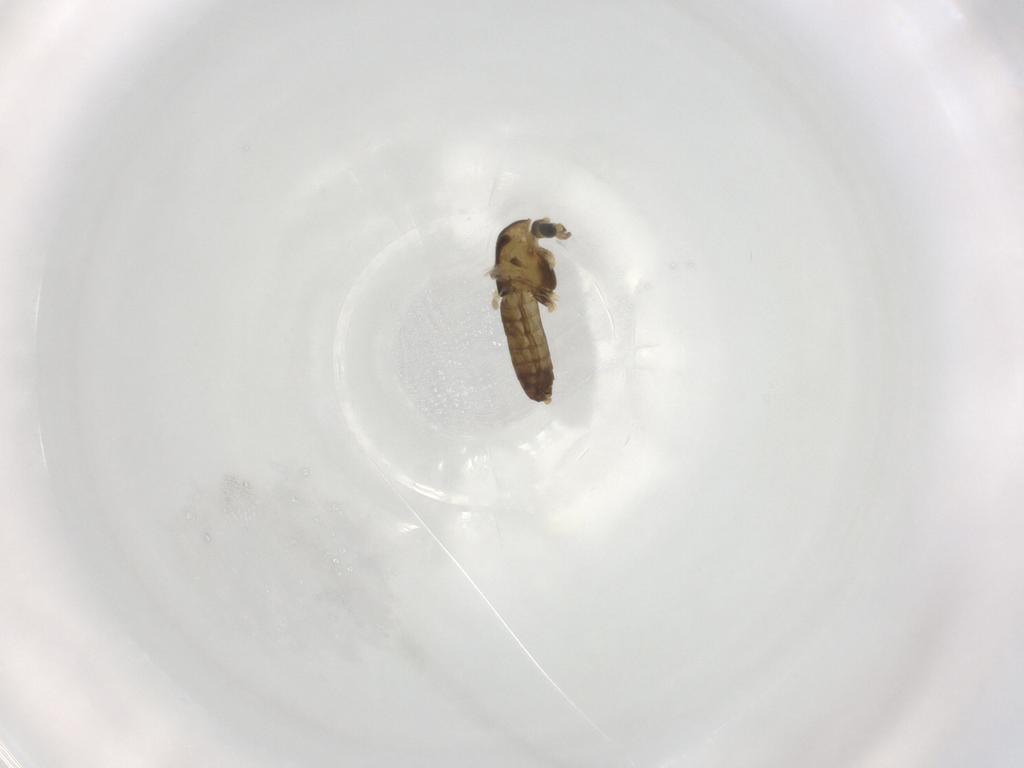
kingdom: Animalia
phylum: Arthropoda
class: Insecta
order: Diptera
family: Chironomidae
